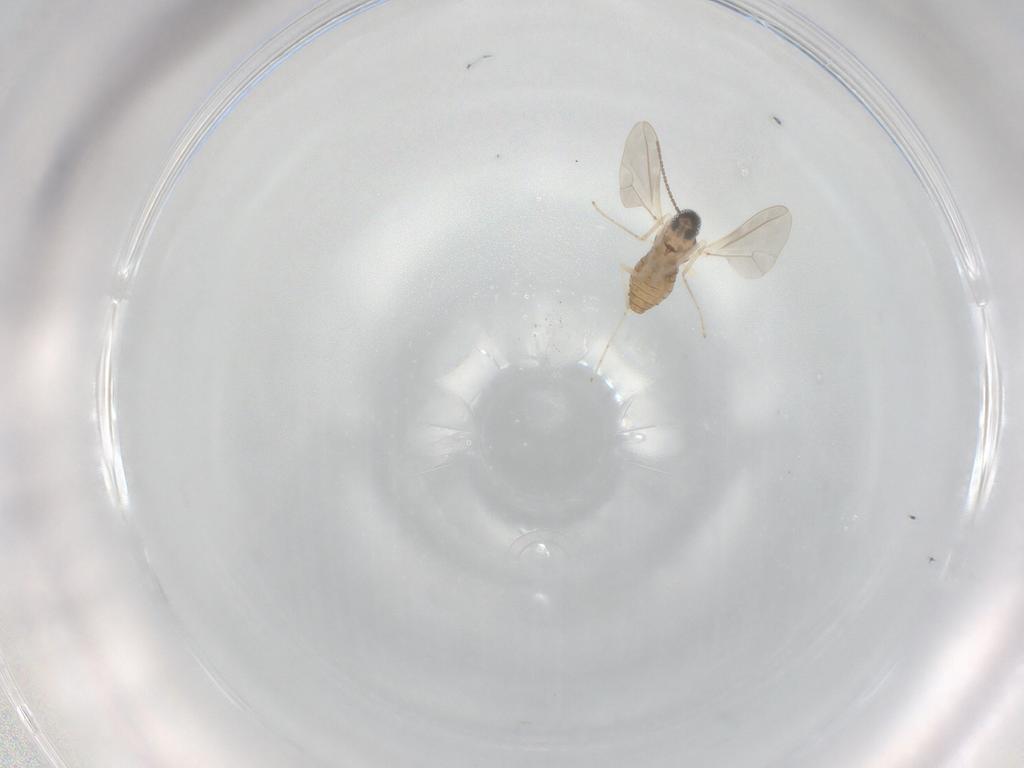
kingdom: Animalia
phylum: Arthropoda
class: Insecta
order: Diptera
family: Cecidomyiidae
